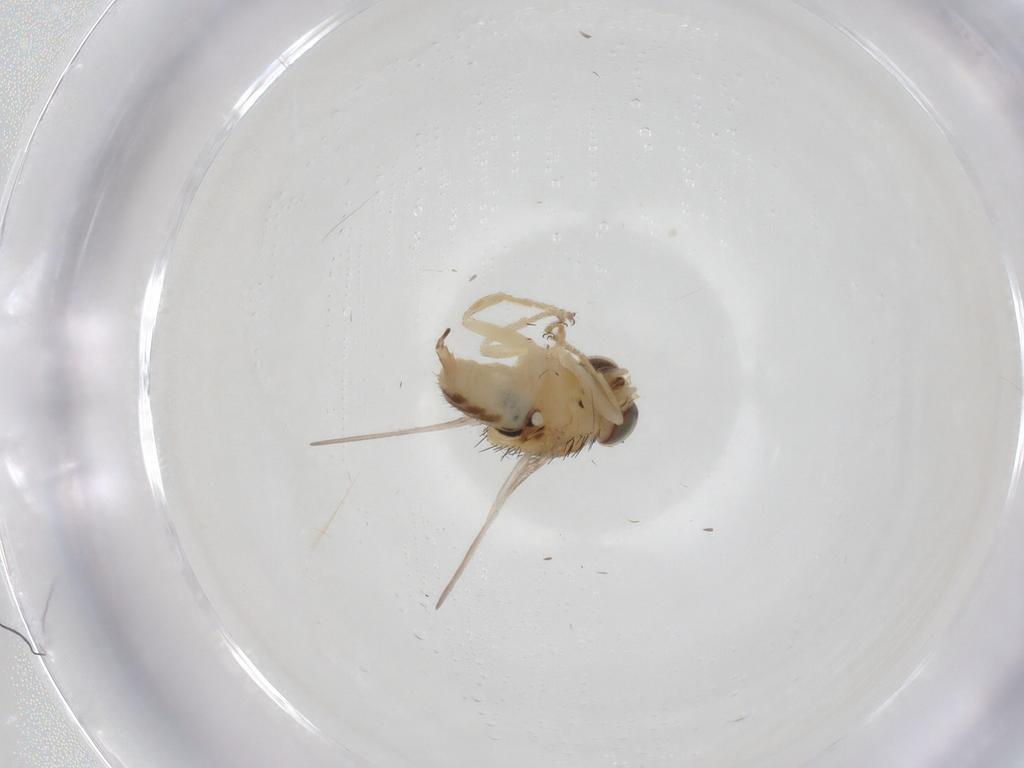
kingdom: Animalia
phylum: Arthropoda
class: Insecta
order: Diptera
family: Chloropidae
